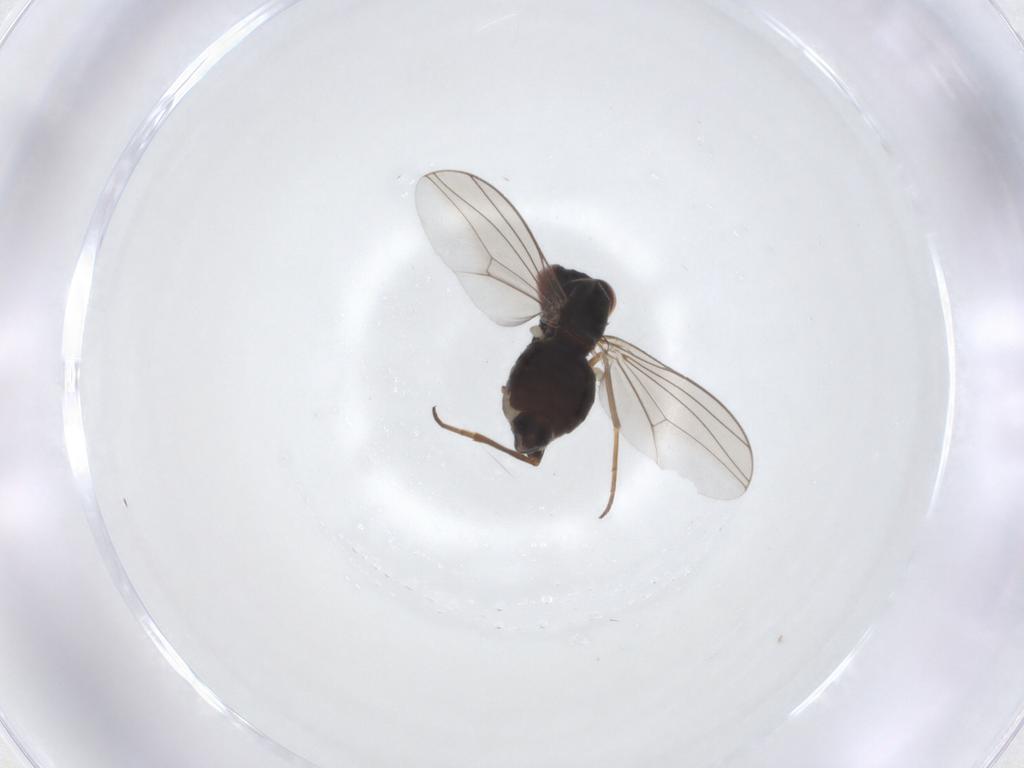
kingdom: Animalia
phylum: Arthropoda
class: Insecta
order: Diptera
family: Dolichopodidae
